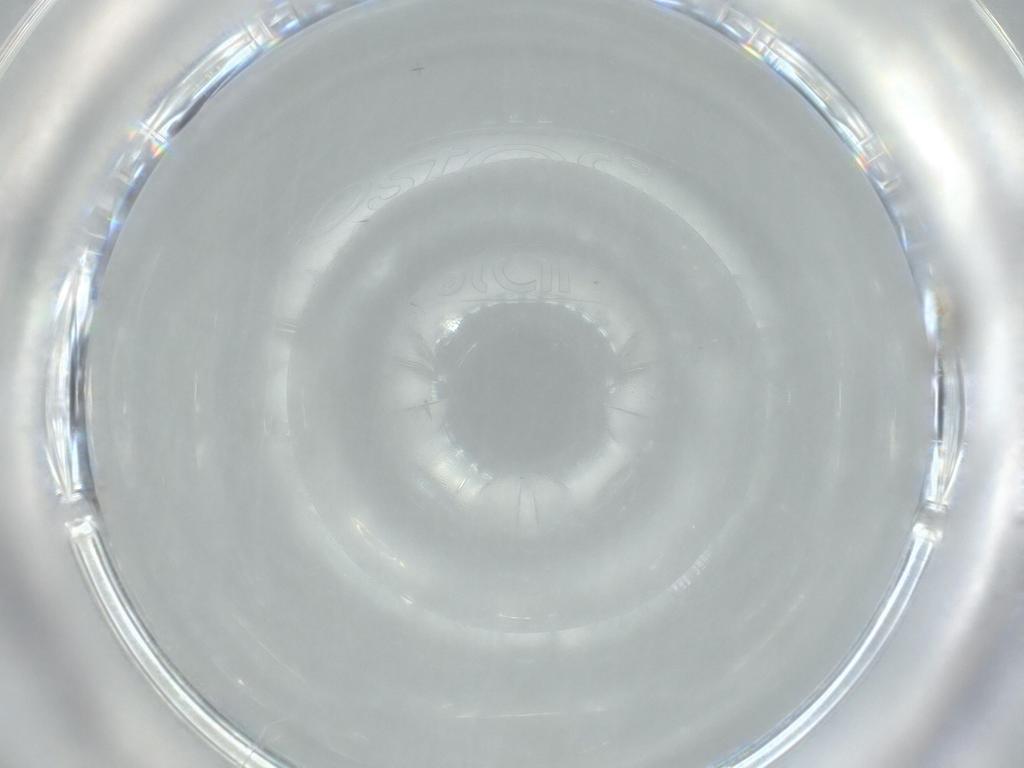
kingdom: Animalia
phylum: Arthropoda
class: Insecta
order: Diptera
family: Cecidomyiidae
